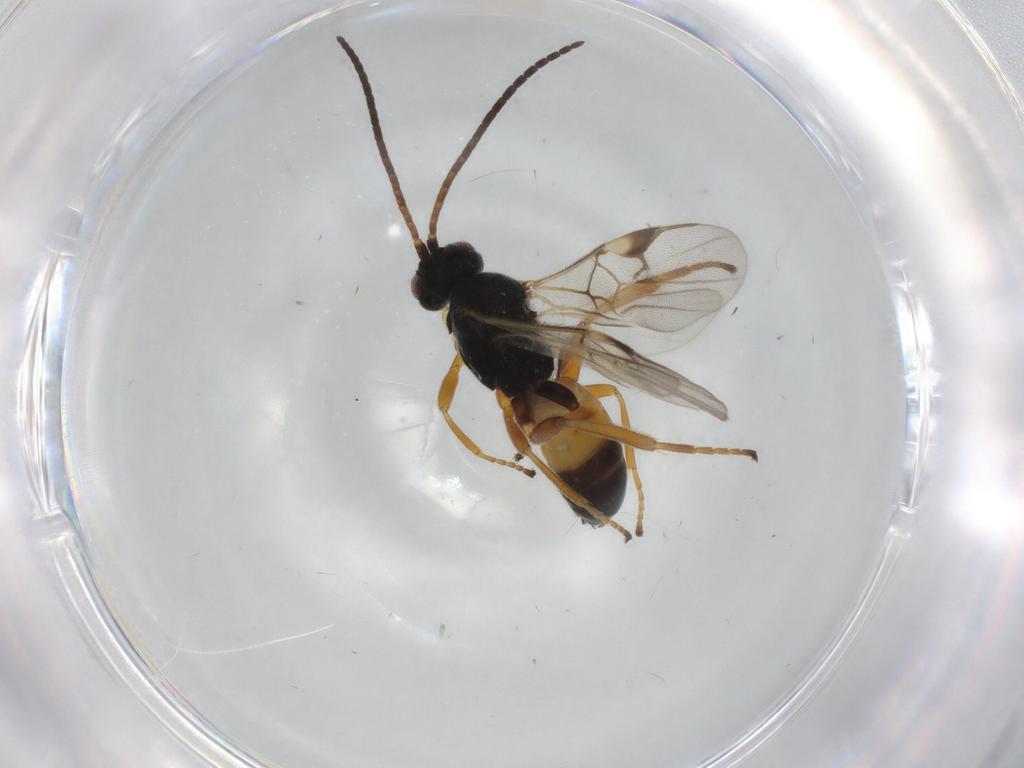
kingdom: Animalia
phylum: Arthropoda
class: Insecta
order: Hymenoptera
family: Braconidae
